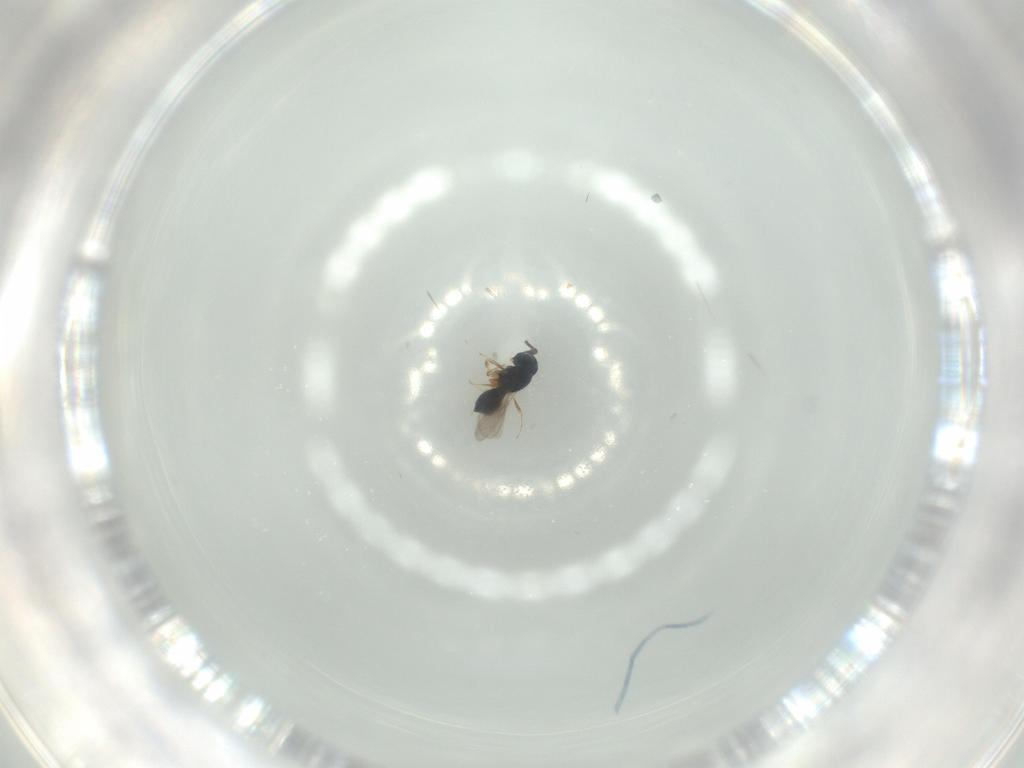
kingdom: Animalia
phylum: Arthropoda
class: Insecta
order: Hymenoptera
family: Scelionidae
